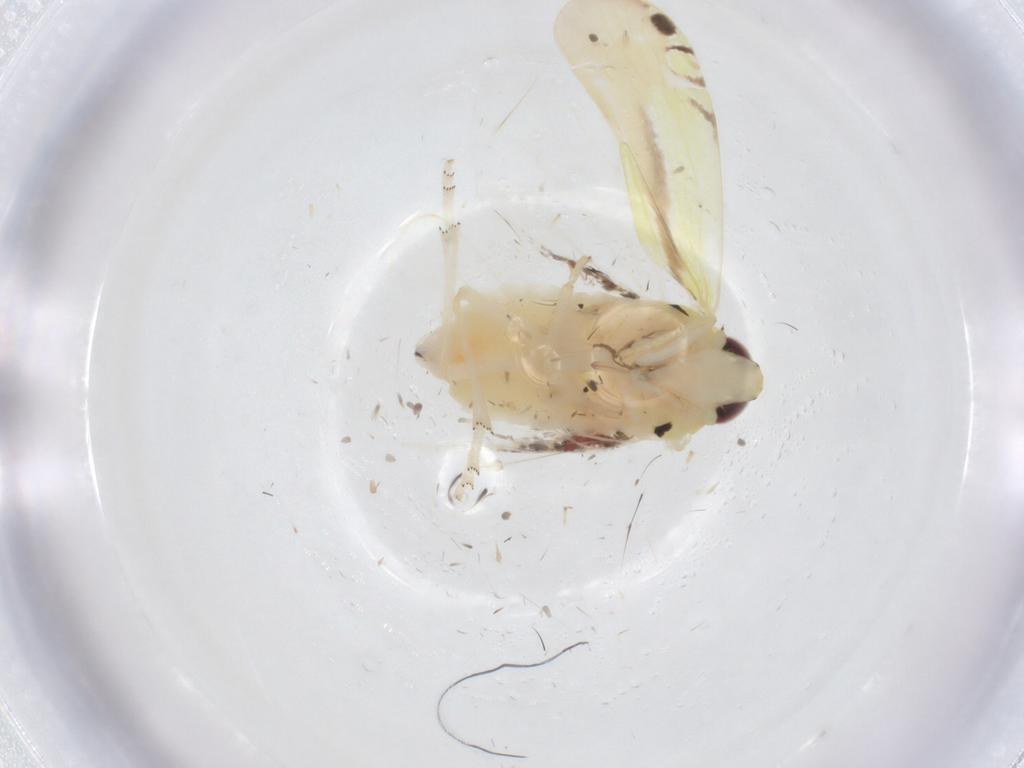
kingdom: Animalia
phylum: Arthropoda
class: Insecta
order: Hemiptera
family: Achilidae
